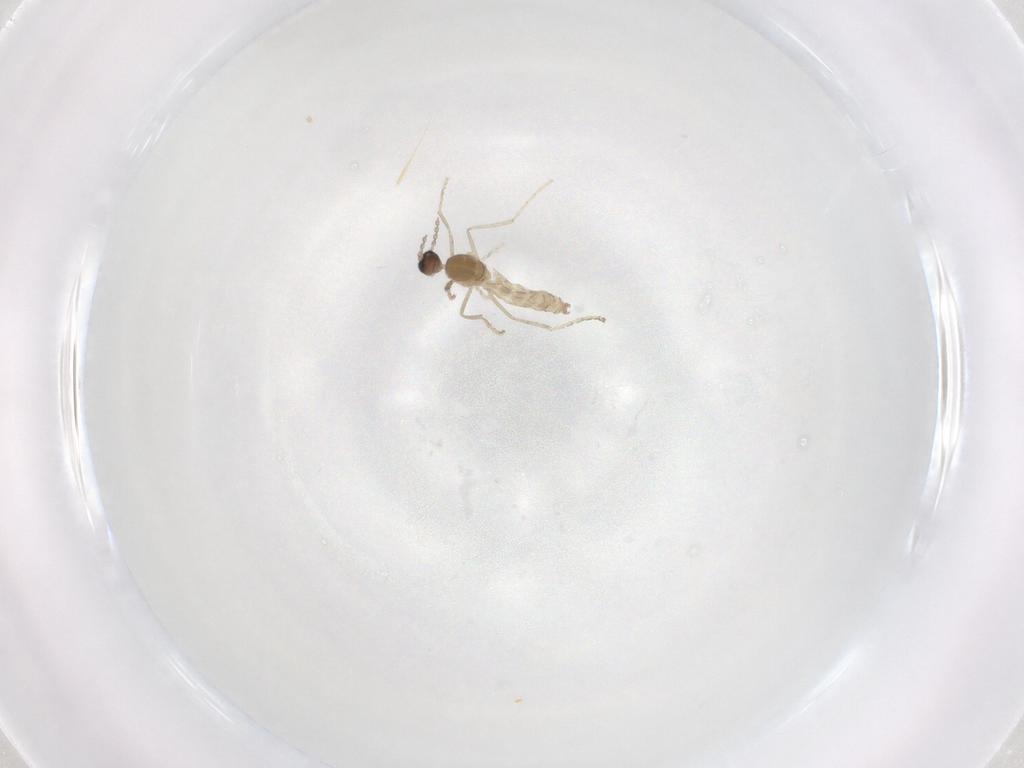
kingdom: Animalia
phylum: Arthropoda
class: Insecta
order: Diptera
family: Cecidomyiidae
